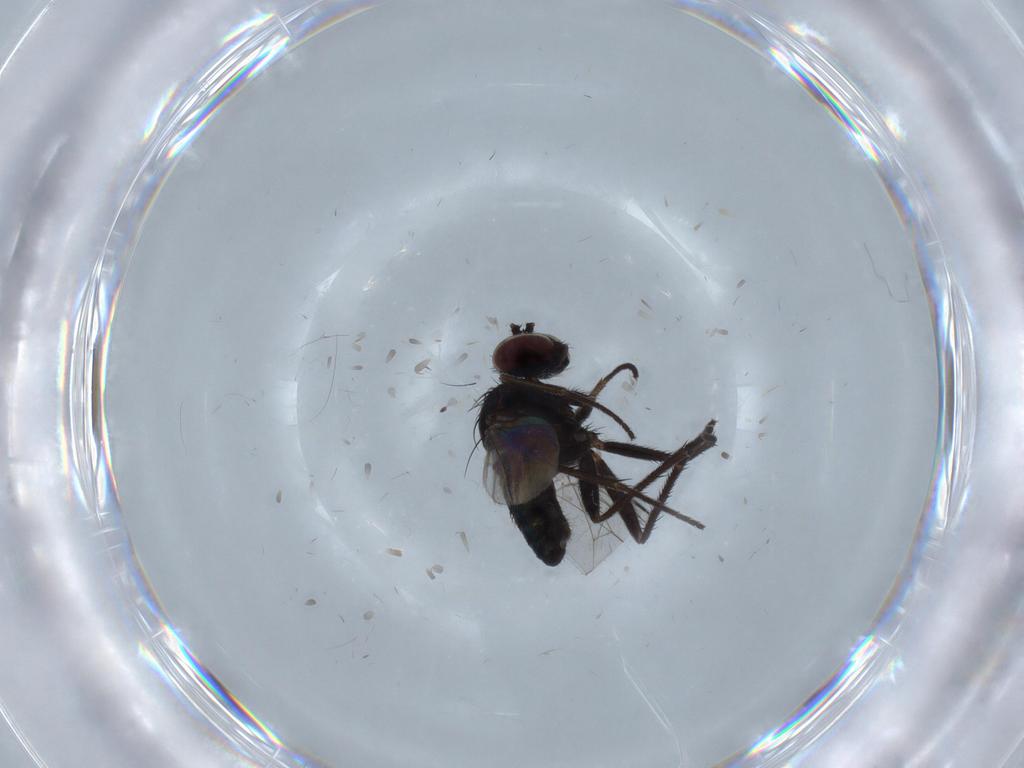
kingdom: Animalia
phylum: Arthropoda
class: Insecta
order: Diptera
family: Dolichopodidae
